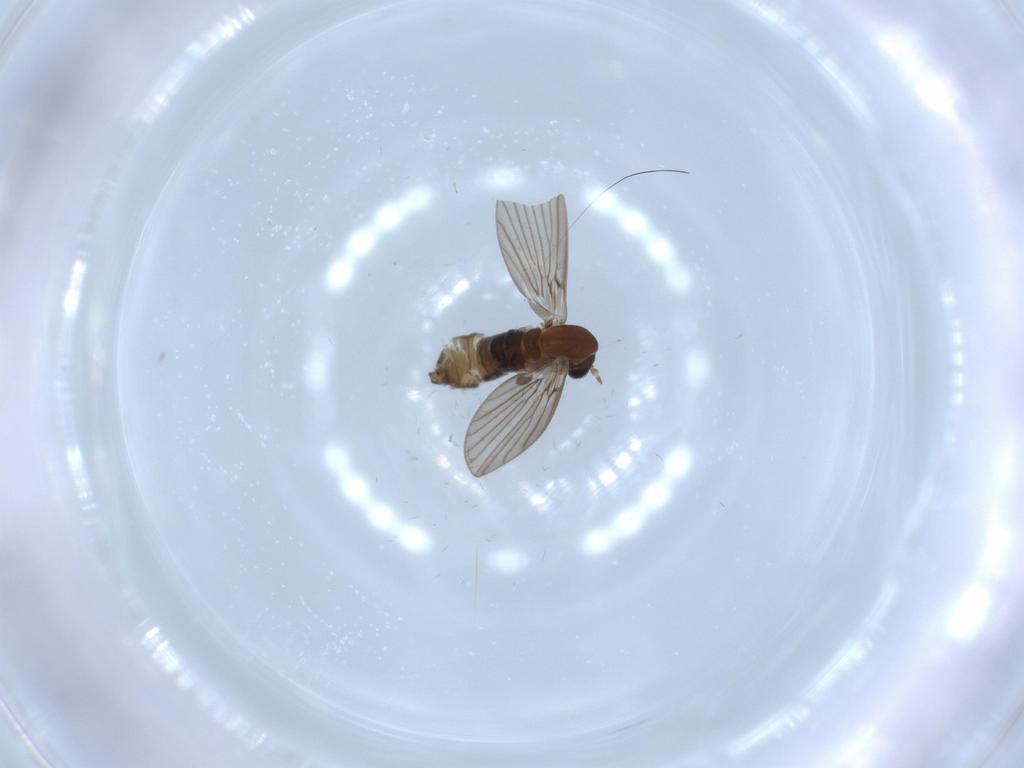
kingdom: Animalia
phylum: Arthropoda
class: Insecta
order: Diptera
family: Psychodidae
